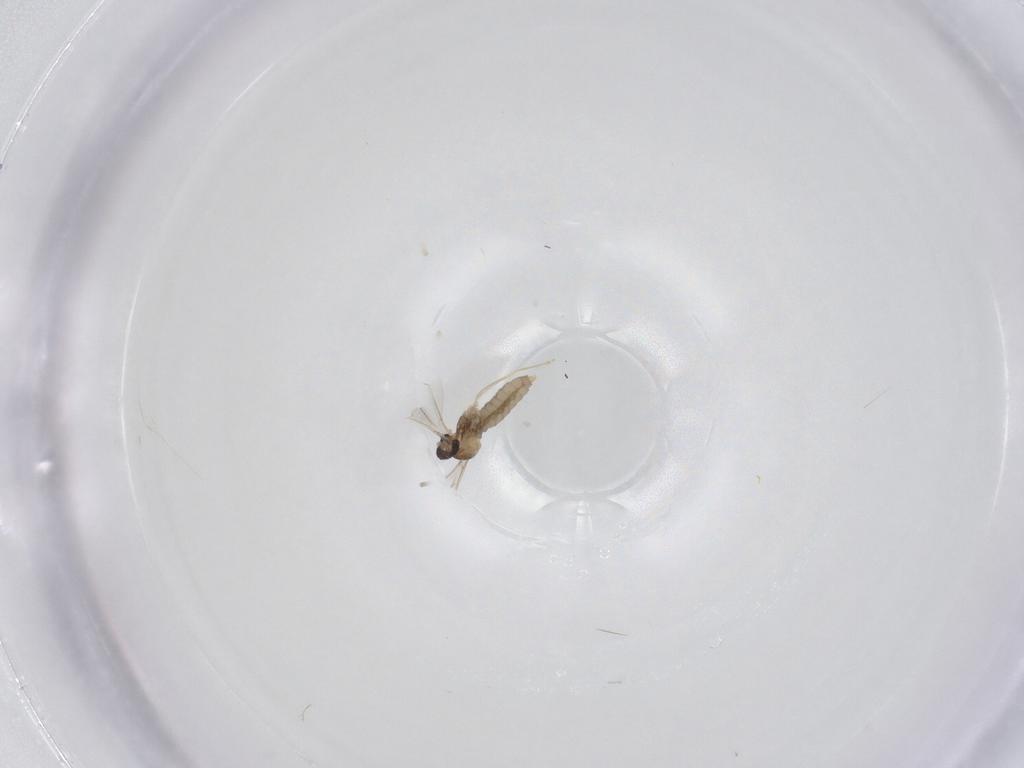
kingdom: Animalia
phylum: Arthropoda
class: Insecta
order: Diptera
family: Cecidomyiidae
